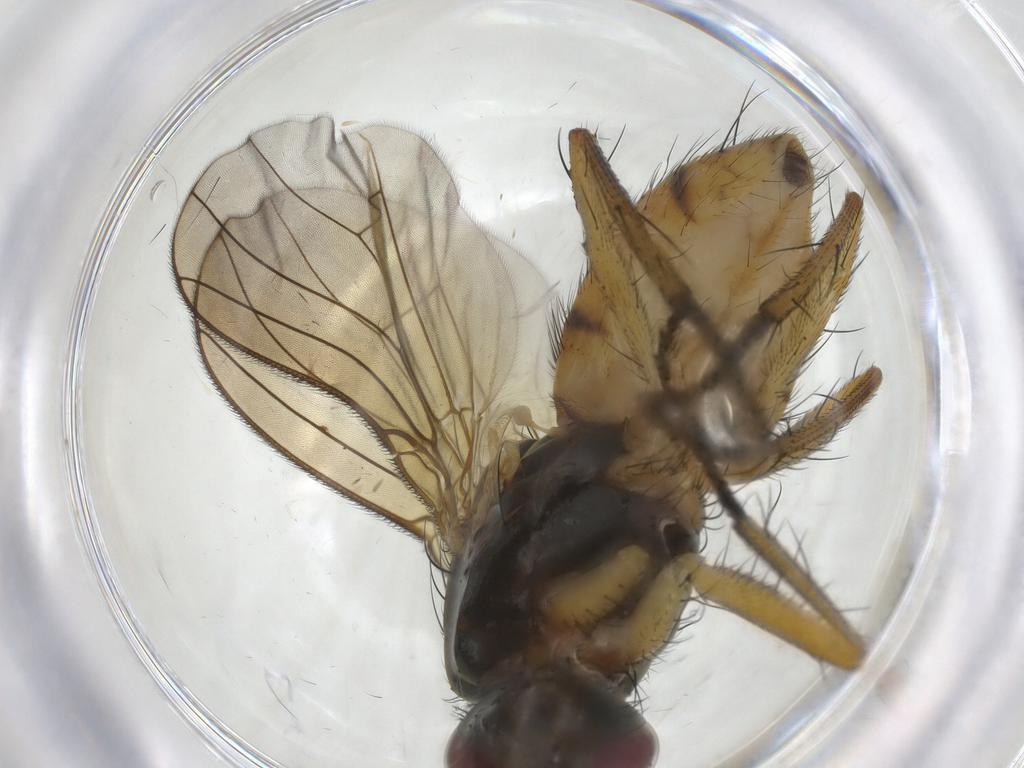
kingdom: Animalia
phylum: Arthropoda
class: Insecta
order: Diptera
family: Muscidae
